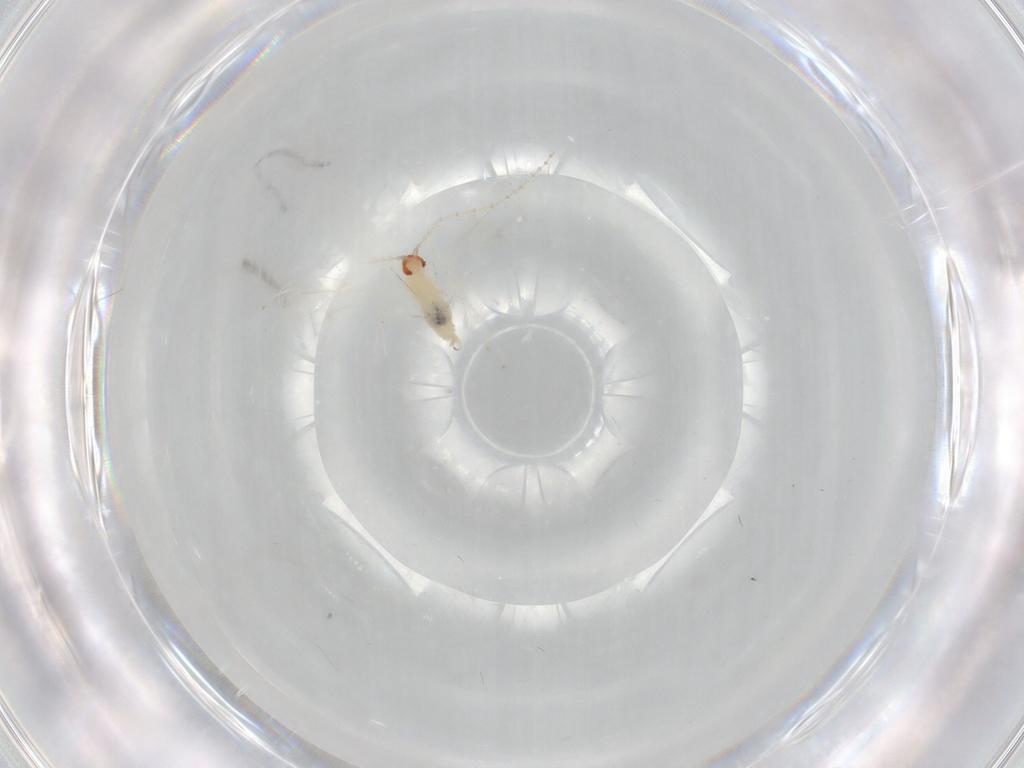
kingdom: Animalia
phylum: Arthropoda
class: Insecta
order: Diptera
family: Cecidomyiidae
